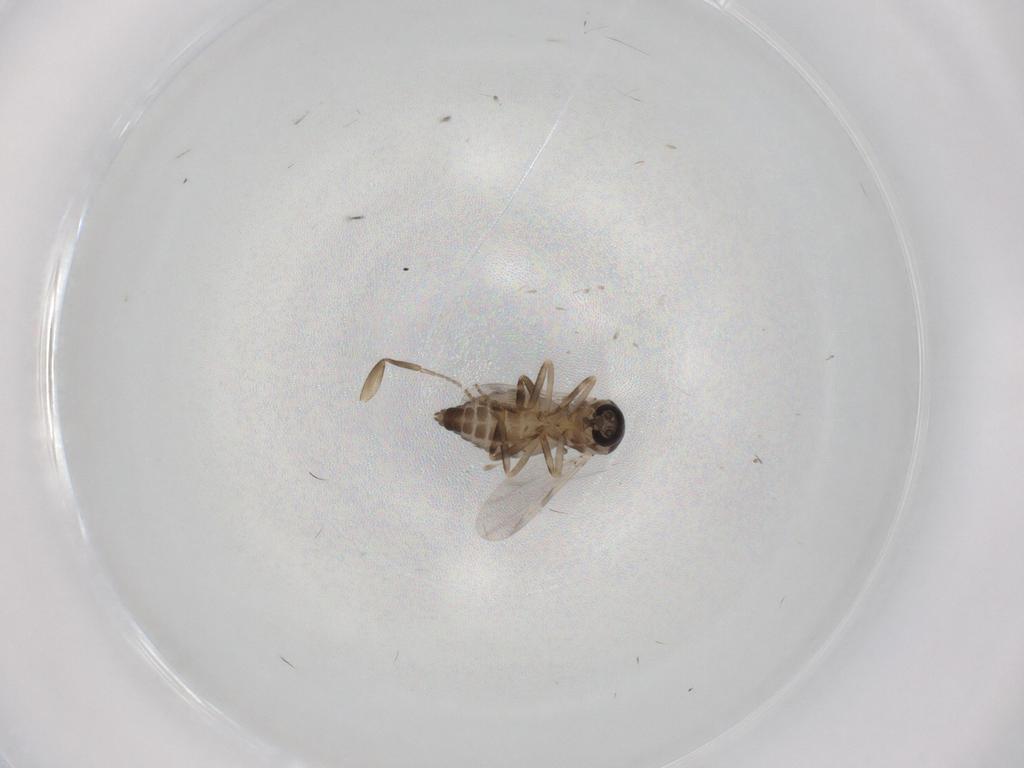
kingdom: Animalia
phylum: Arthropoda
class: Insecta
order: Diptera
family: Ceratopogonidae
